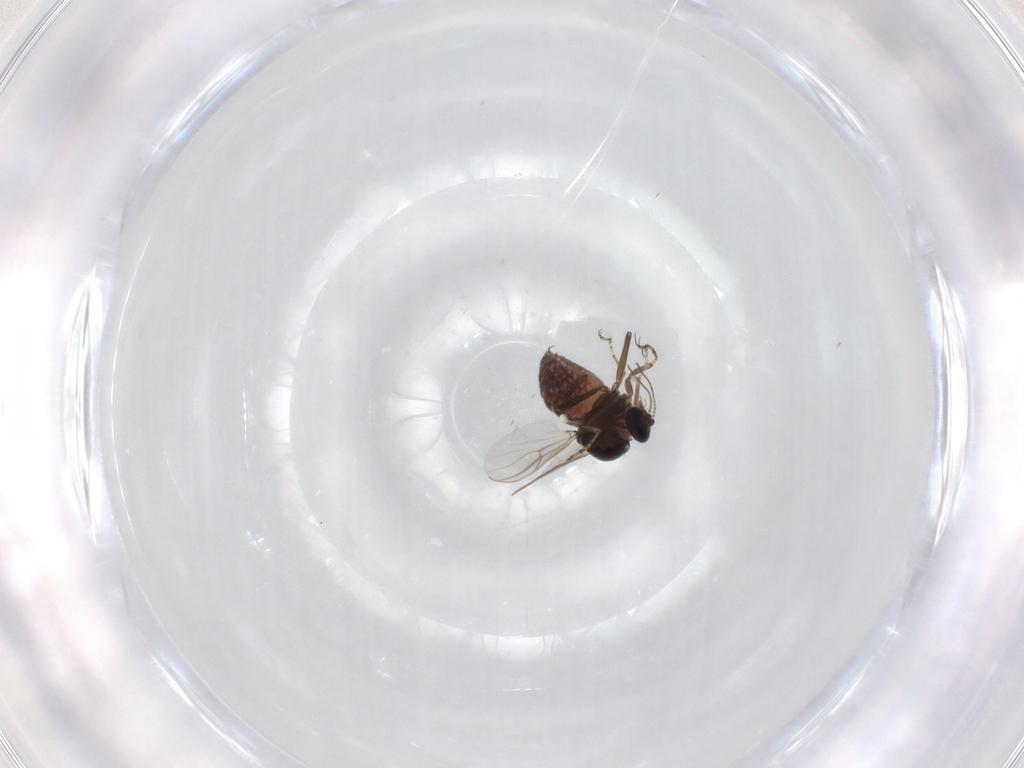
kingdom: Animalia
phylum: Arthropoda
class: Insecta
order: Diptera
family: Ceratopogonidae
